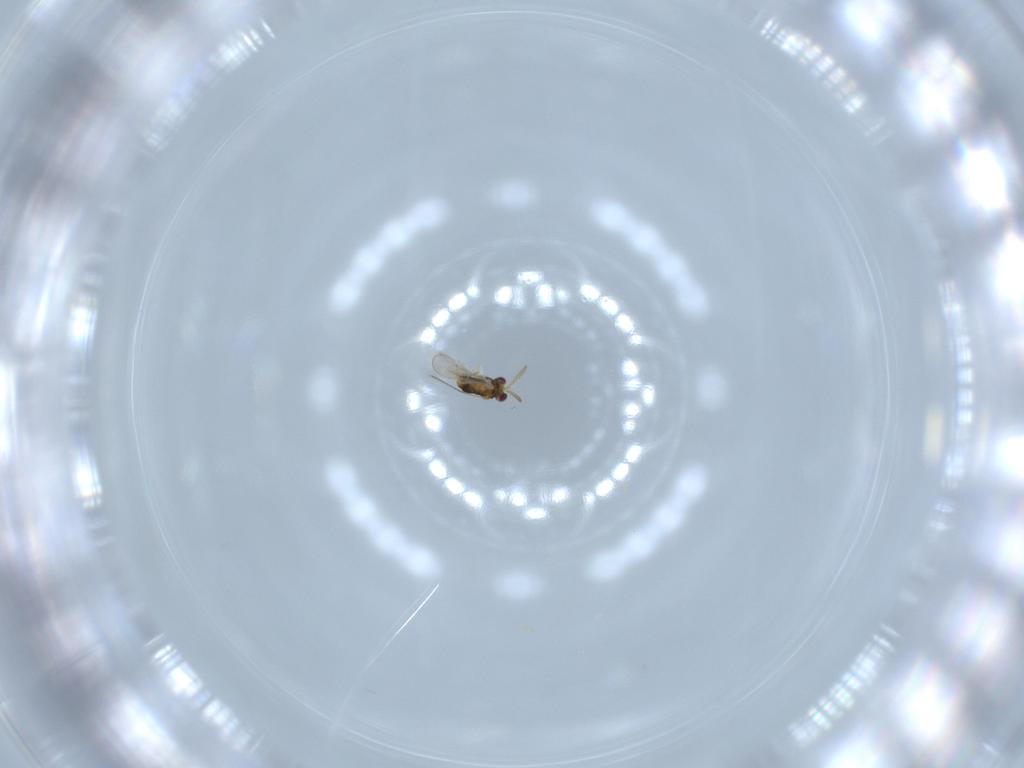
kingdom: Animalia
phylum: Arthropoda
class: Insecta
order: Hymenoptera
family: Aphelinidae
